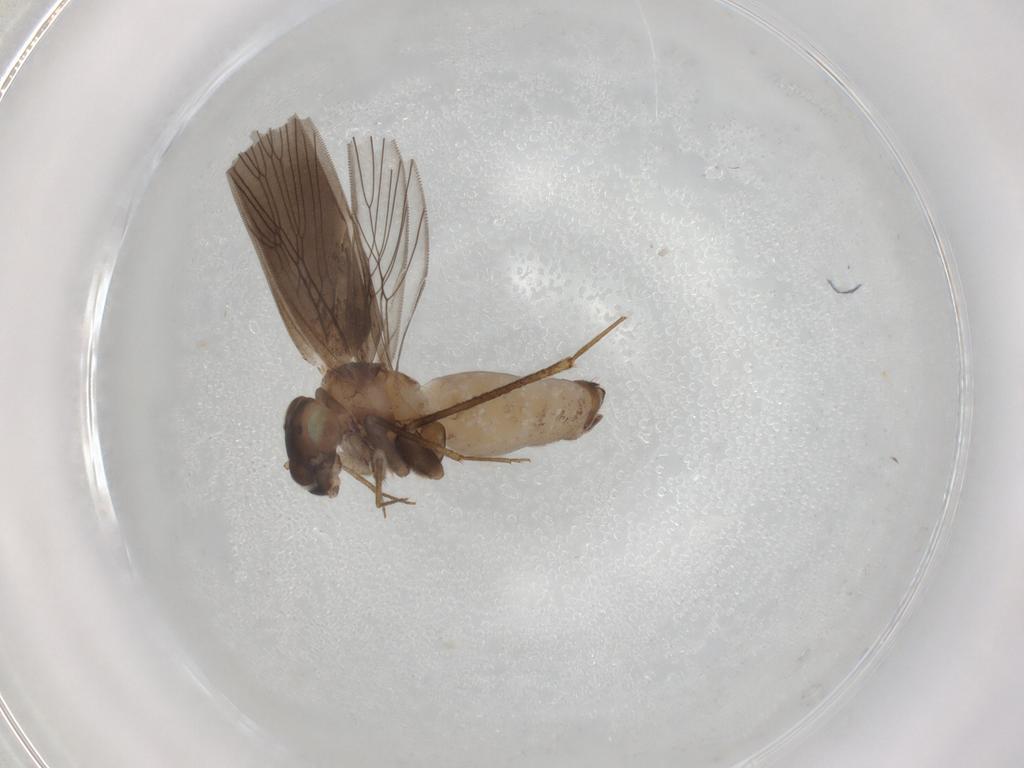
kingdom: Animalia
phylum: Arthropoda
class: Insecta
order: Psocodea
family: Lepidopsocidae
